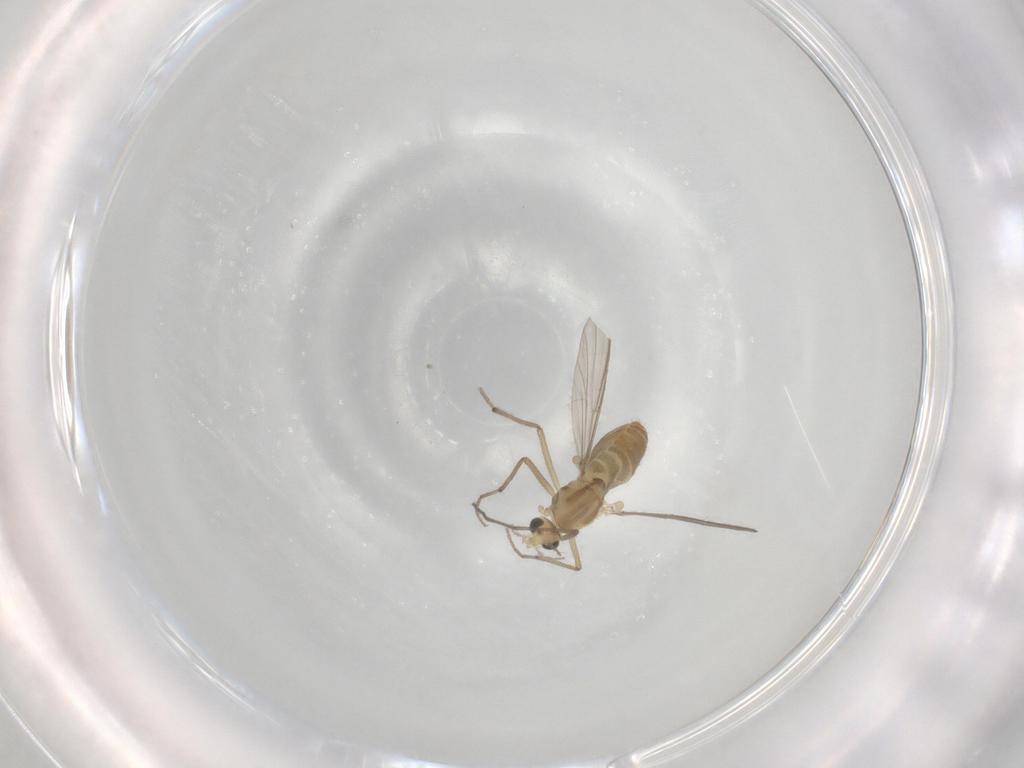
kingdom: Animalia
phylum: Arthropoda
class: Insecta
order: Diptera
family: Chironomidae
